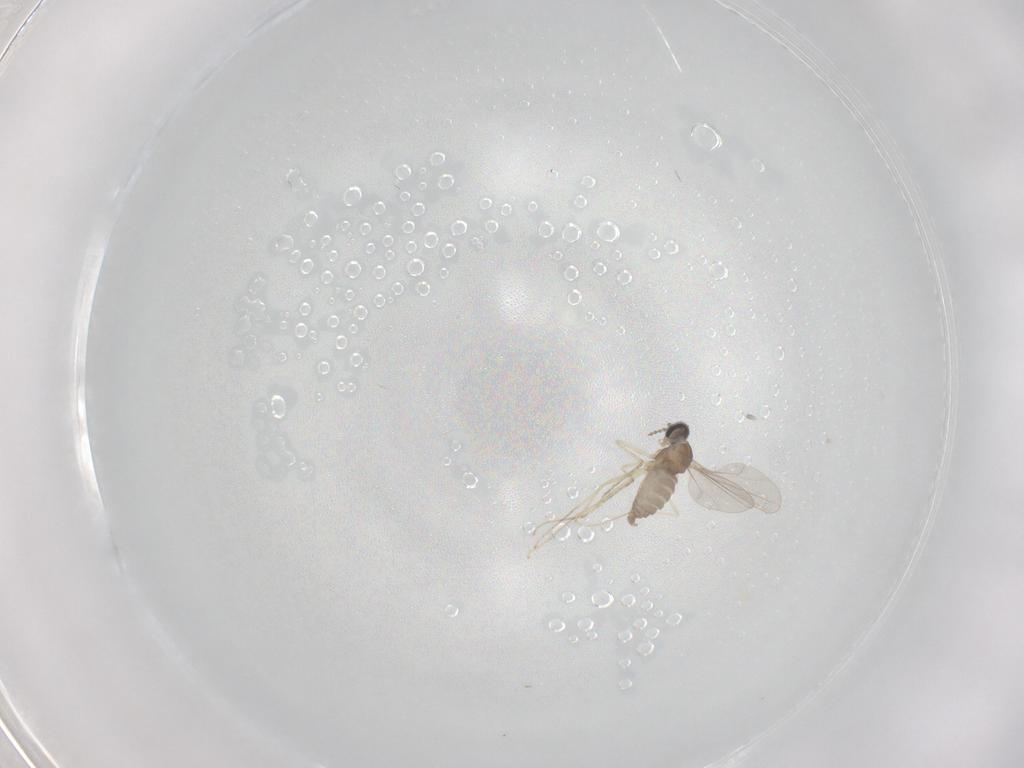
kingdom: Animalia
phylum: Arthropoda
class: Insecta
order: Diptera
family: Cecidomyiidae
